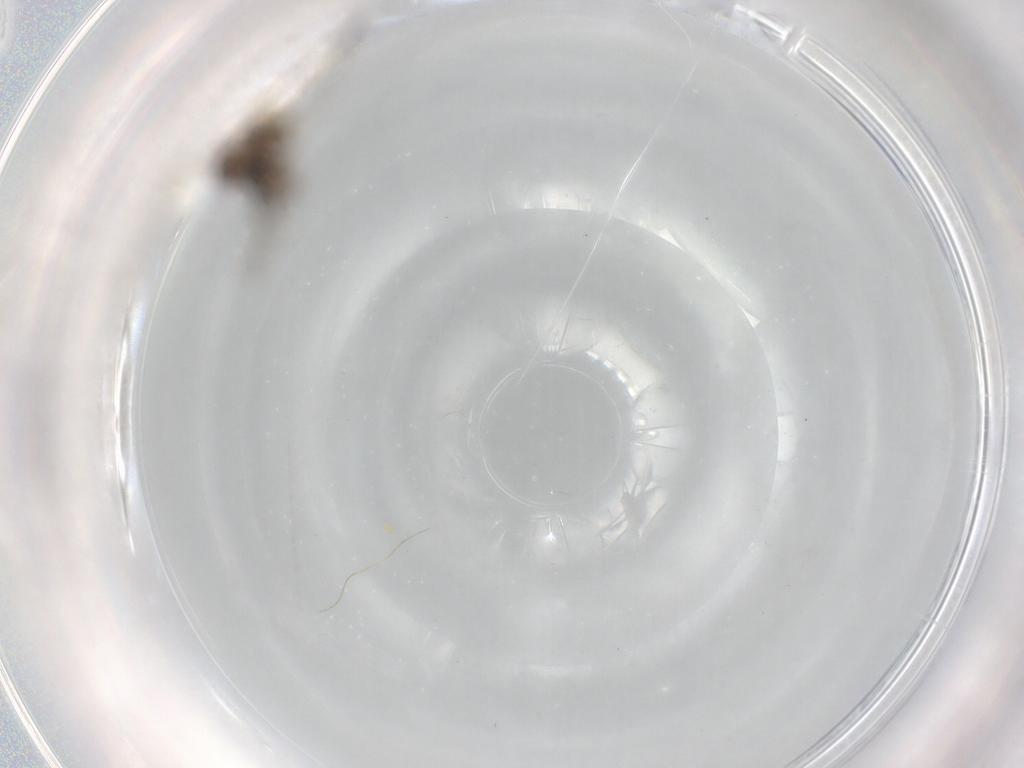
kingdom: Animalia
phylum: Arthropoda
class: Insecta
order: Diptera
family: Cecidomyiidae
